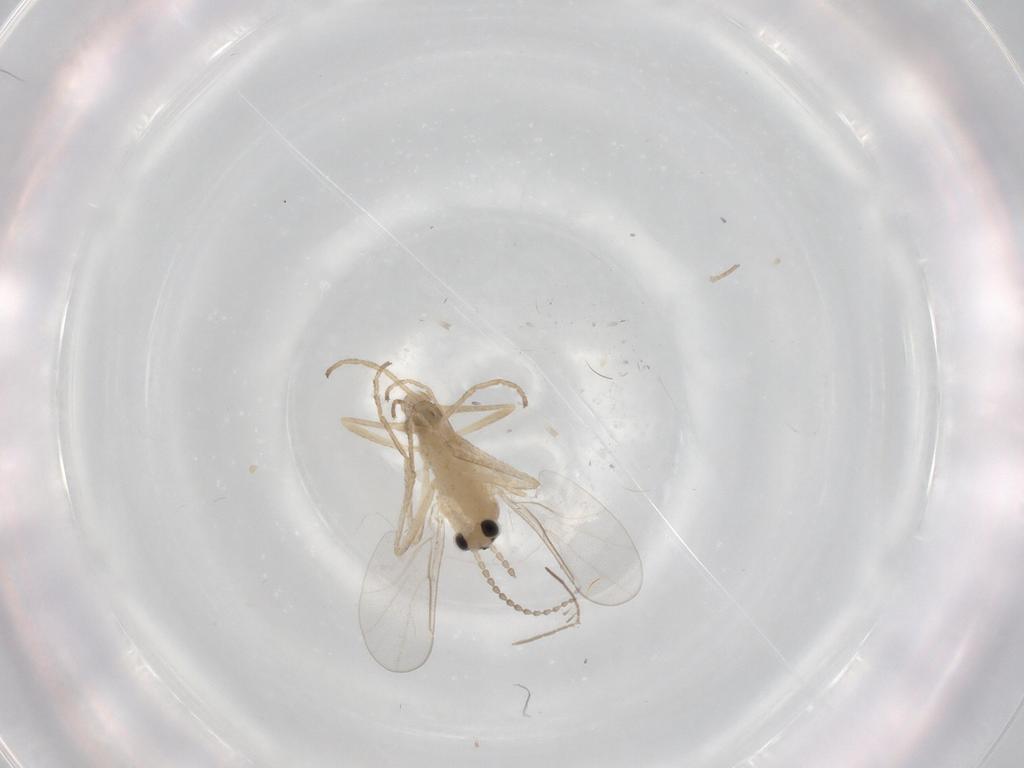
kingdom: Animalia
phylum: Arthropoda
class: Insecta
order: Diptera
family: Cecidomyiidae
